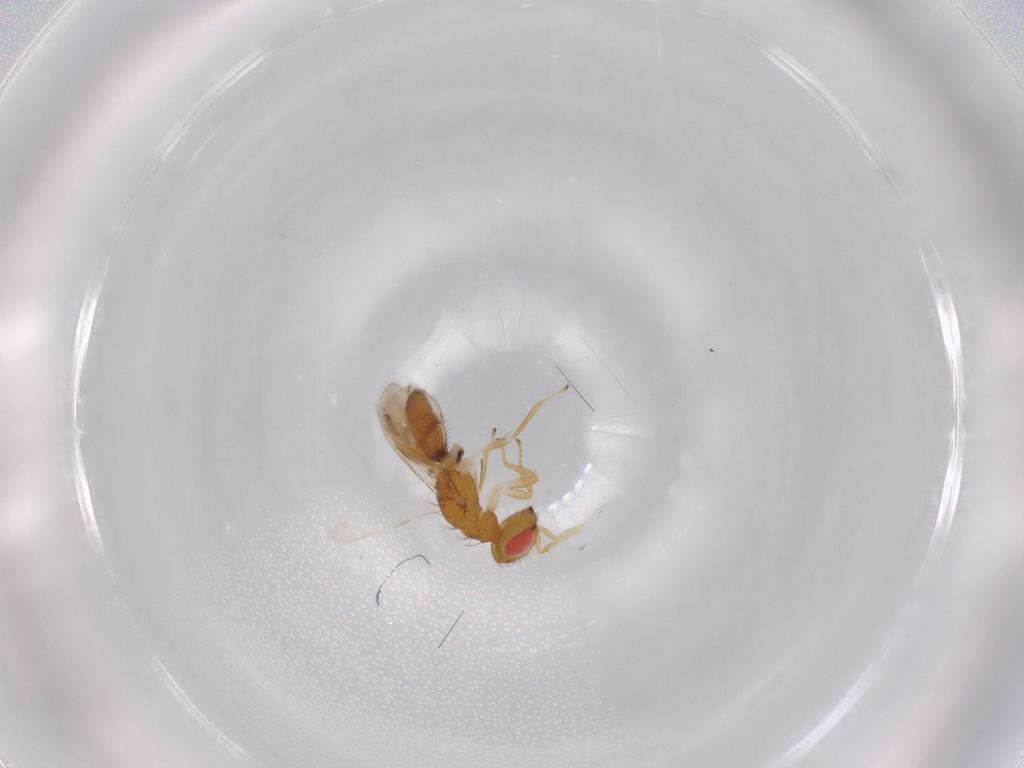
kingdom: Animalia
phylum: Arthropoda
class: Insecta
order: Hymenoptera
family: Eulophidae
